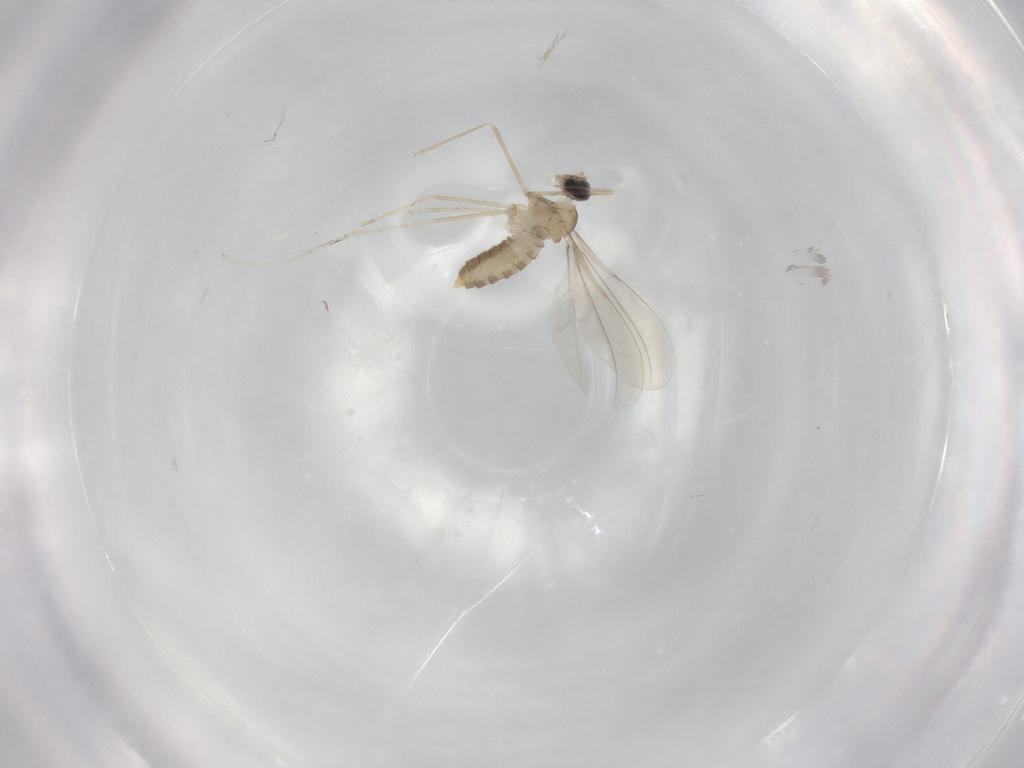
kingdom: Animalia
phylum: Arthropoda
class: Insecta
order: Diptera
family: Cecidomyiidae
